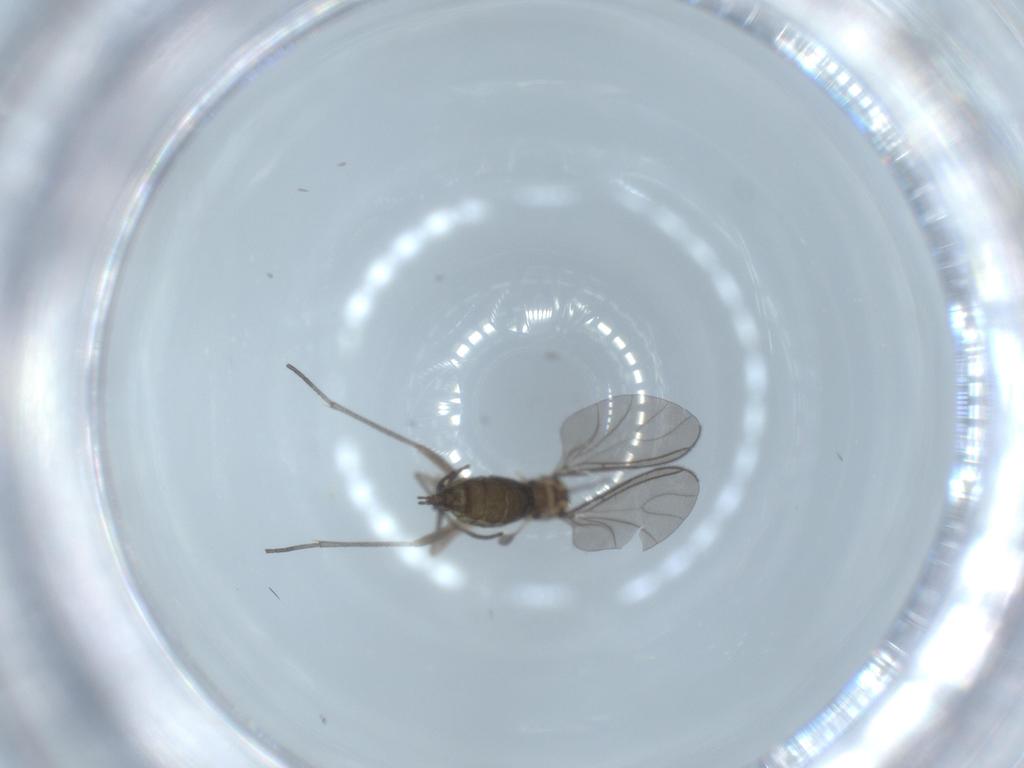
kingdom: Animalia
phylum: Arthropoda
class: Insecta
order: Diptera
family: Sciaridae
